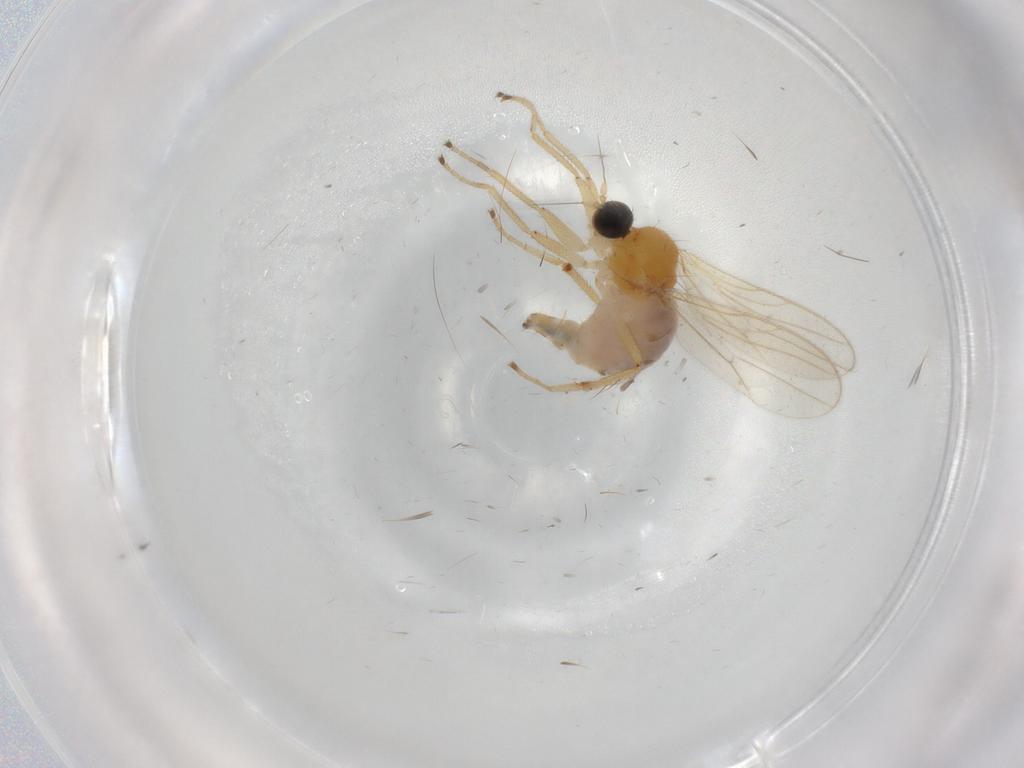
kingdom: Animalia
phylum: Arthropoda
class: Insecta
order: Diptera
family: Hybotidae
